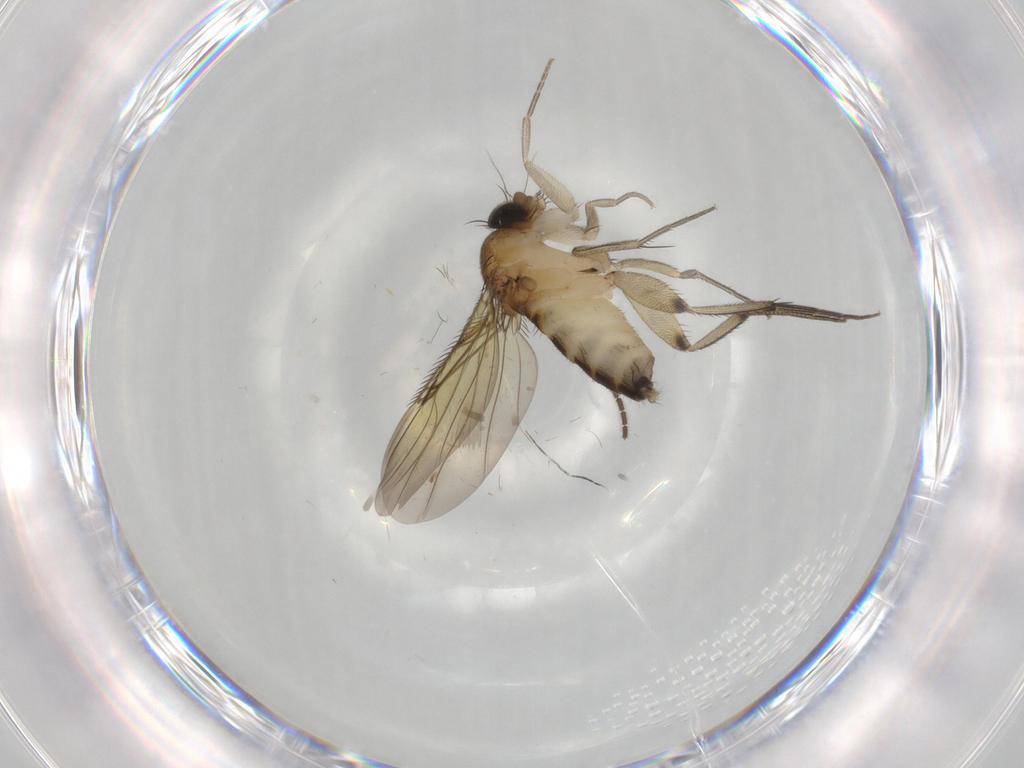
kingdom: Animalia
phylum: Arthropoda
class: Insecta
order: Diptera
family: Phoridae
